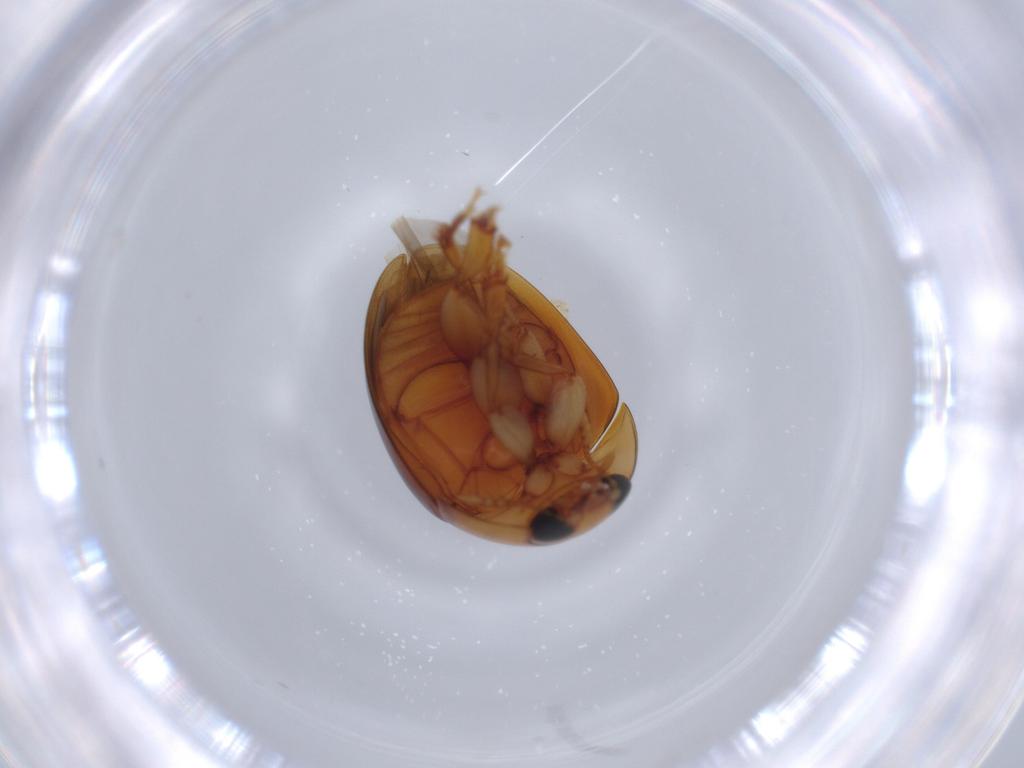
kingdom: Animalia
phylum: Arthropoda
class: Insecta
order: Coleoptera
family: Phalacridae
